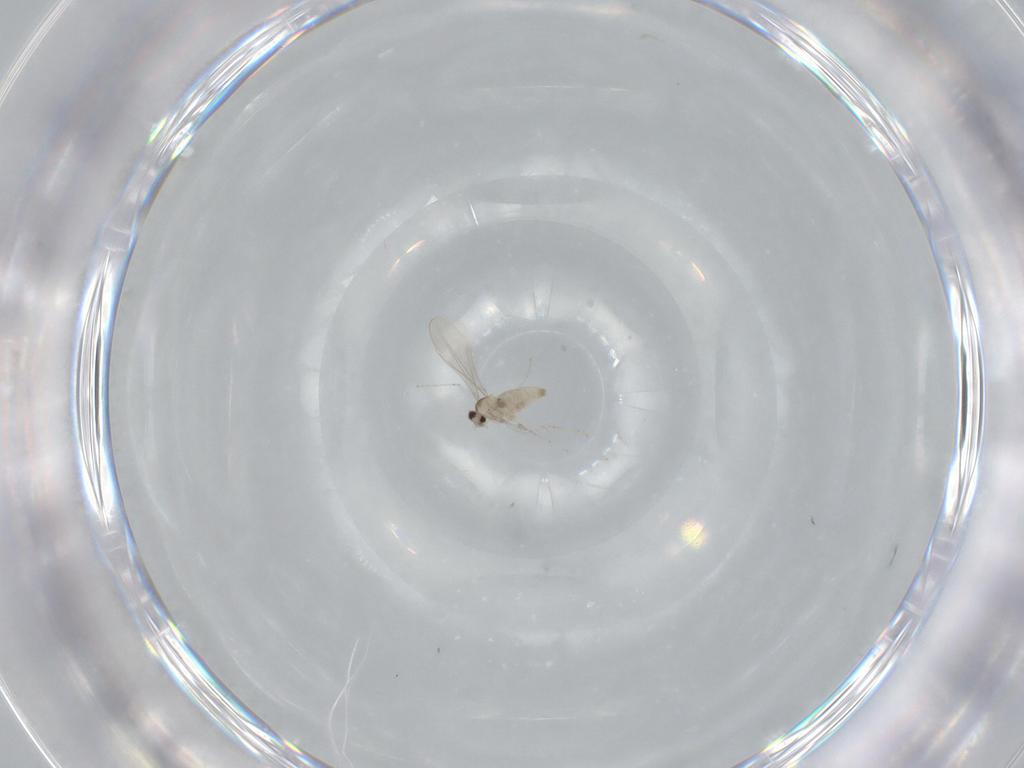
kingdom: Animalia
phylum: Arthropoda
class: Insecta
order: Diptera
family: Cecidomyiidae
